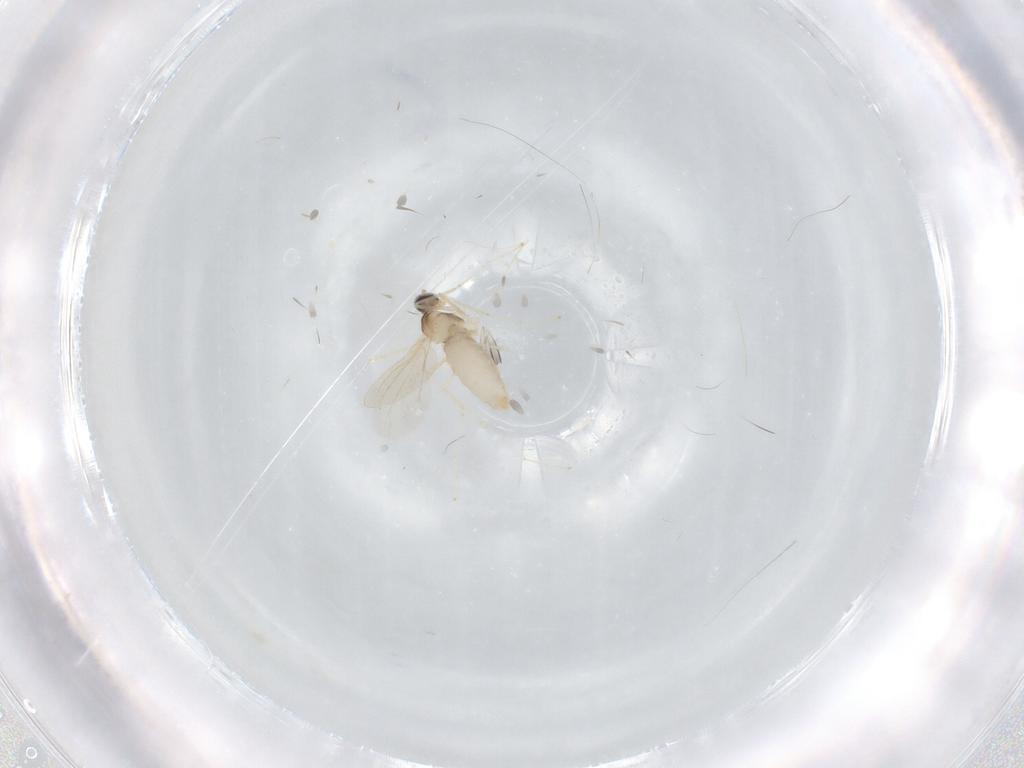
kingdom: Animalia
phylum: Arthropoda
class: Insecta
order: Diptera
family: Cecidomyiidae
